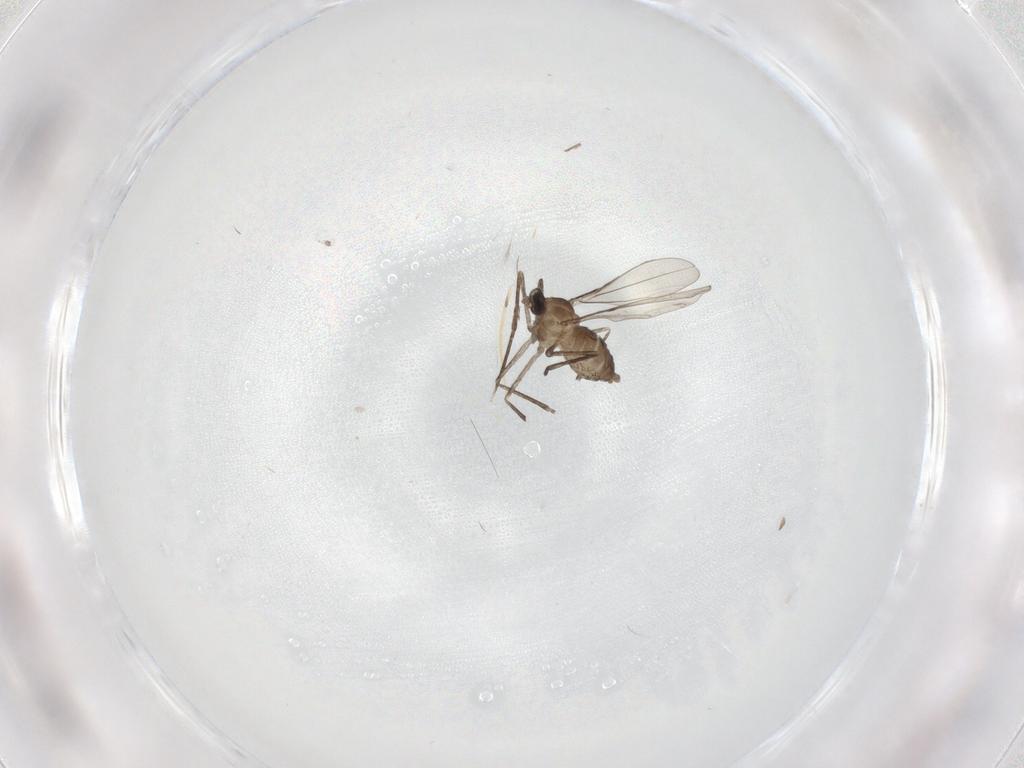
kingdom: Animalia
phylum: Arthropoda
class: Insecta
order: Diptera
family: Cecidomyiidae
